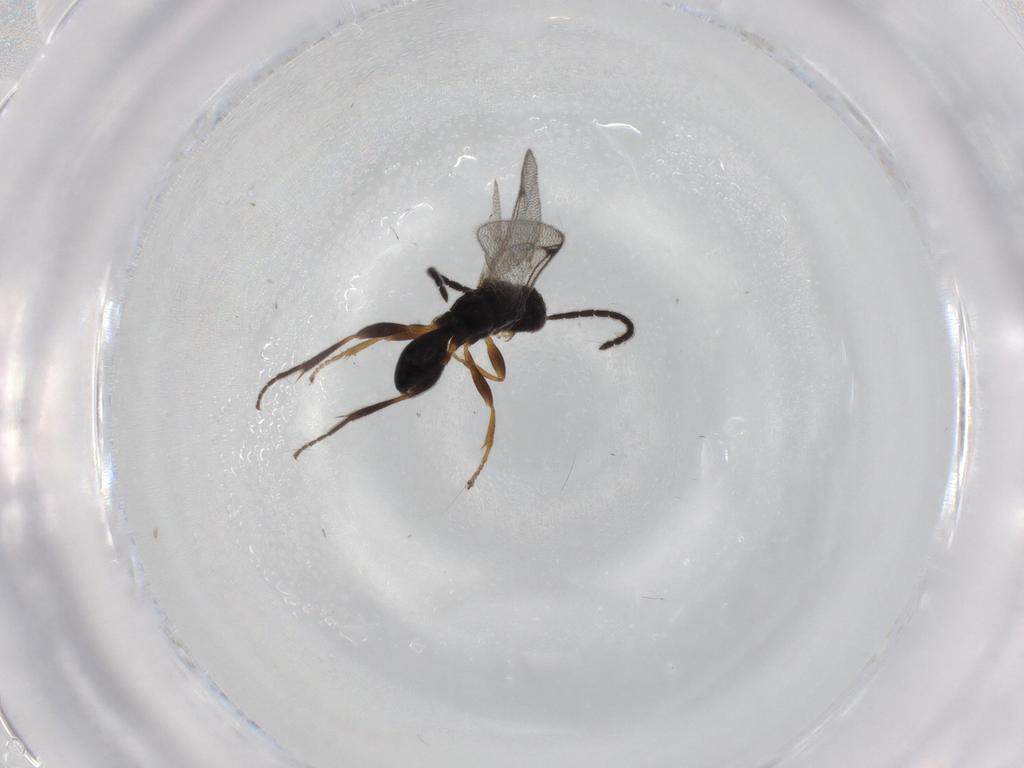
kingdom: Animalia
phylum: Arthropoda
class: Insecta
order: Hymenoptera
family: Proctotrupidae
